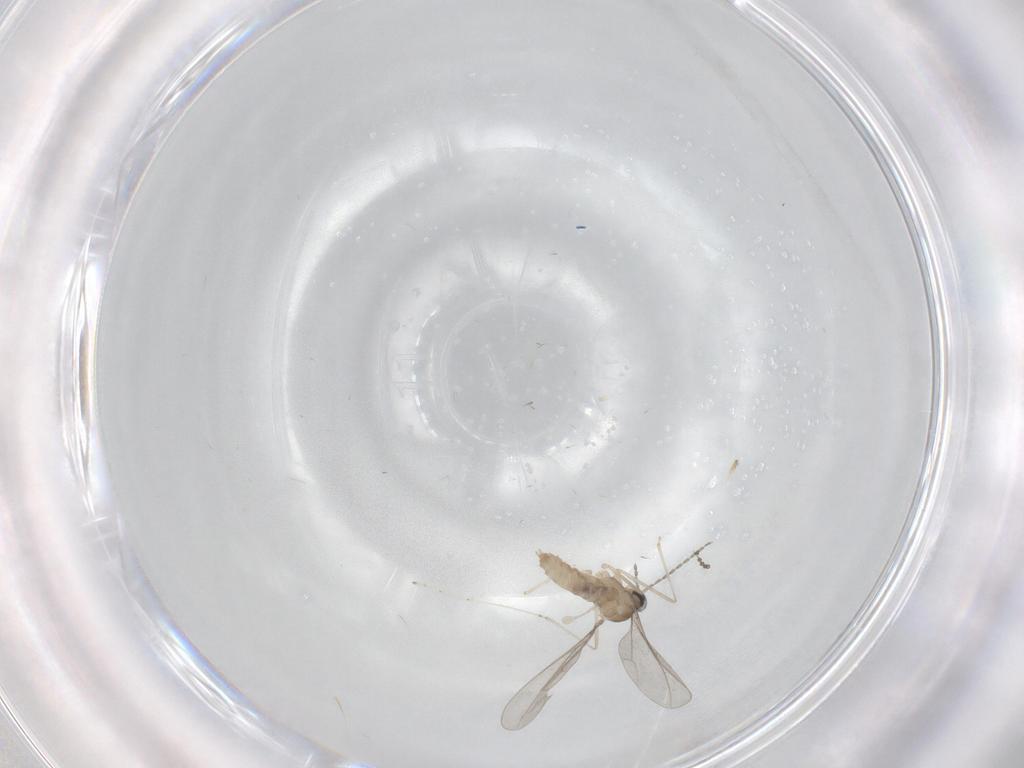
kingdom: Animalia
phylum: Arthropoda
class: Insecta
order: Diptera
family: Cecidomyiidae
